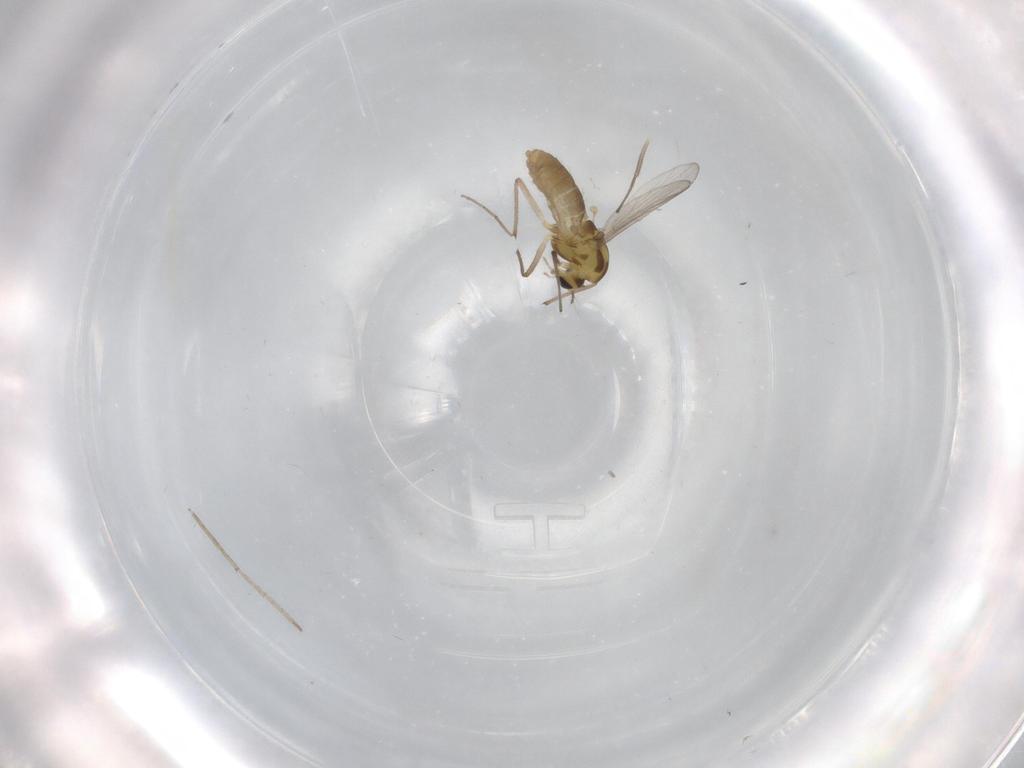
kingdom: Animalia
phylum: Arthropoda
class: Insecta
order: Diptera
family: Chironomidae
